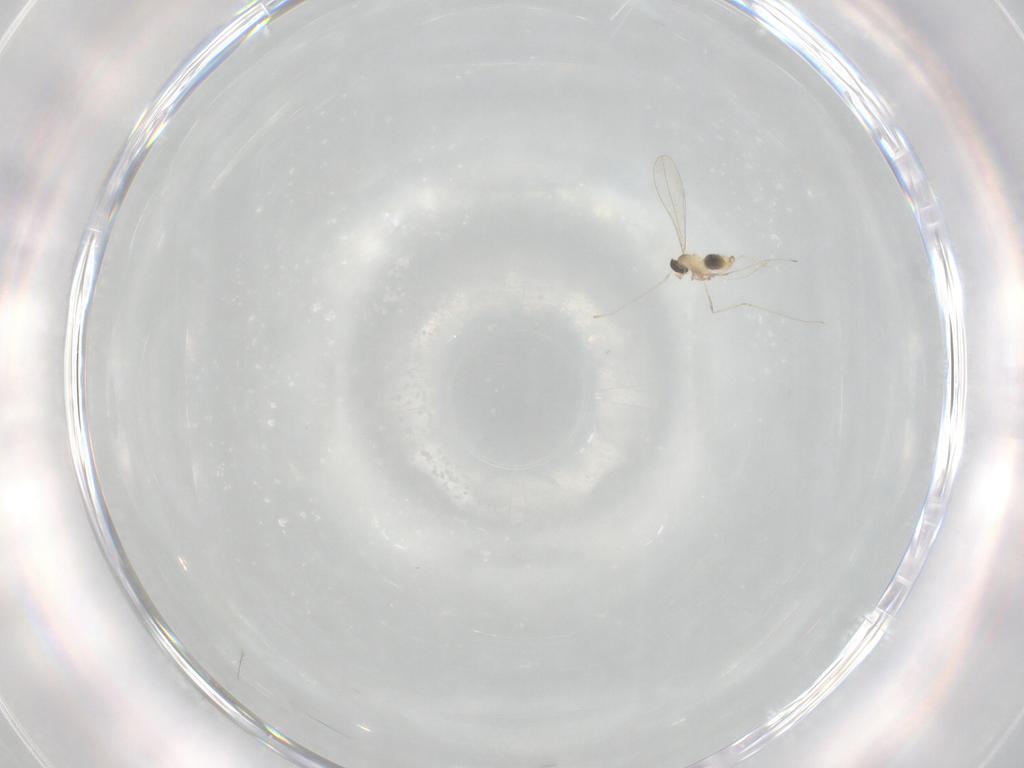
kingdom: Animalia
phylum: Arthropoda
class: Insecta
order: Diptera
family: Cecidomyiidae
